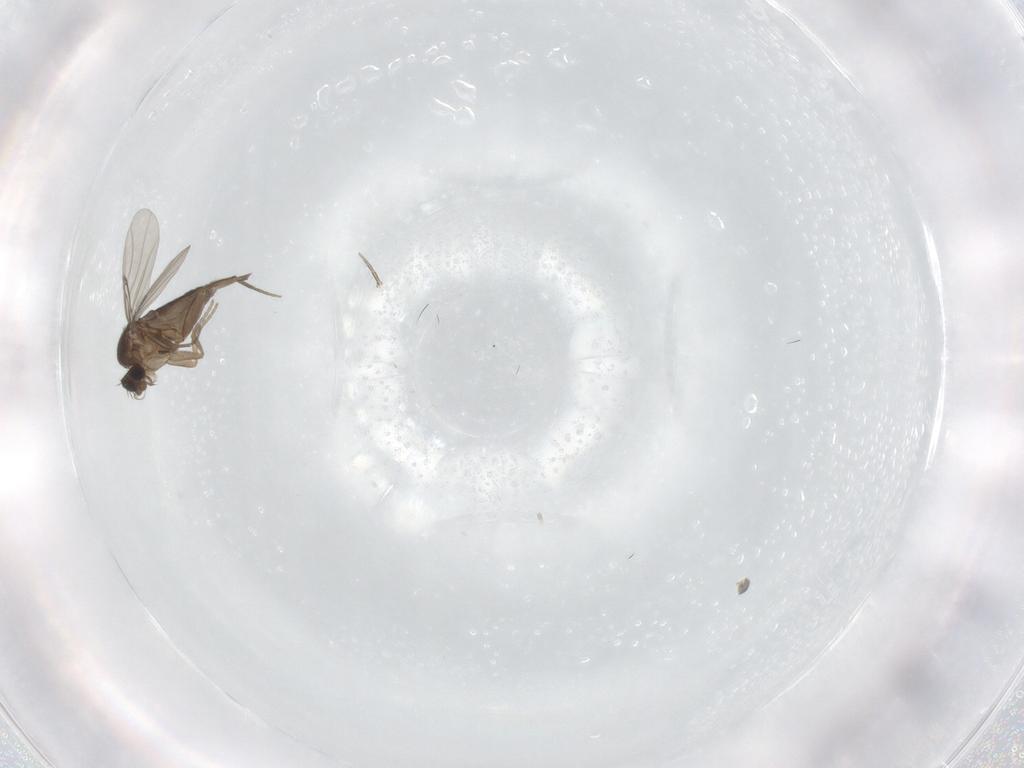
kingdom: Animalia
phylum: Arthropoda
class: Insecta
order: Diptera
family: Phoridae
